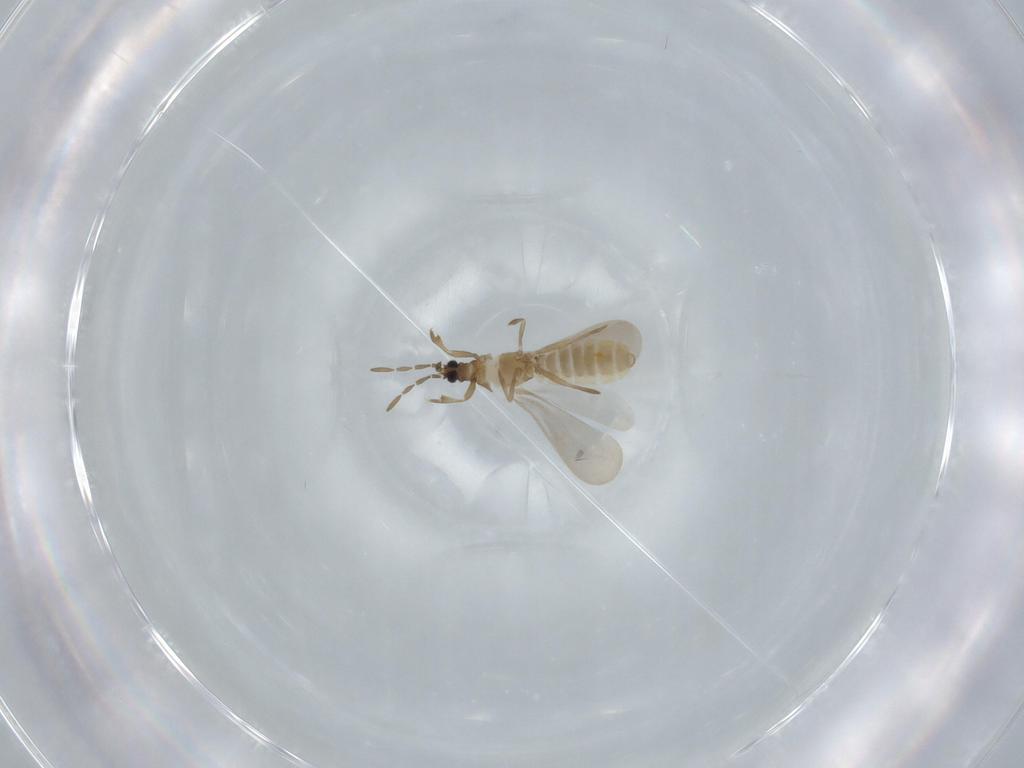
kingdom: Animalia
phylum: Arthropoda
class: Insecta
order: Hemiptera
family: Enicocephalidae
